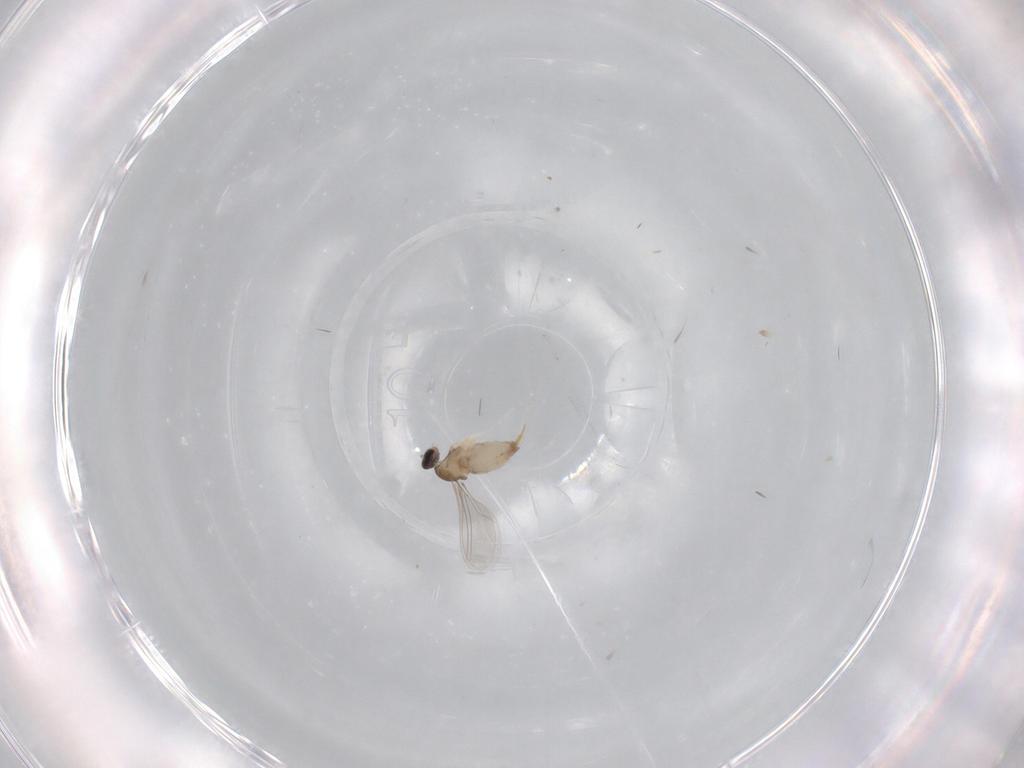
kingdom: Animalia
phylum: Arthropoda
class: Insecta
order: Diptera
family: Cecidomyiidae
